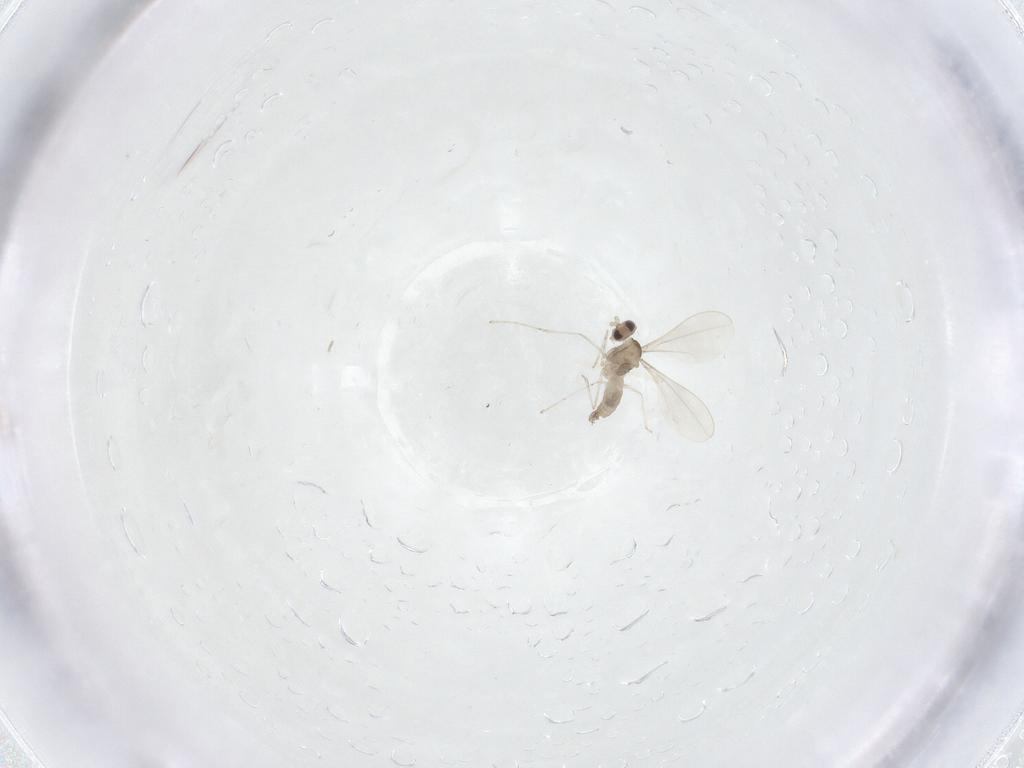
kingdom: Animalia
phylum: Arthropoda
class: Insecta
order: Diptera
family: Cecidomyiidae
